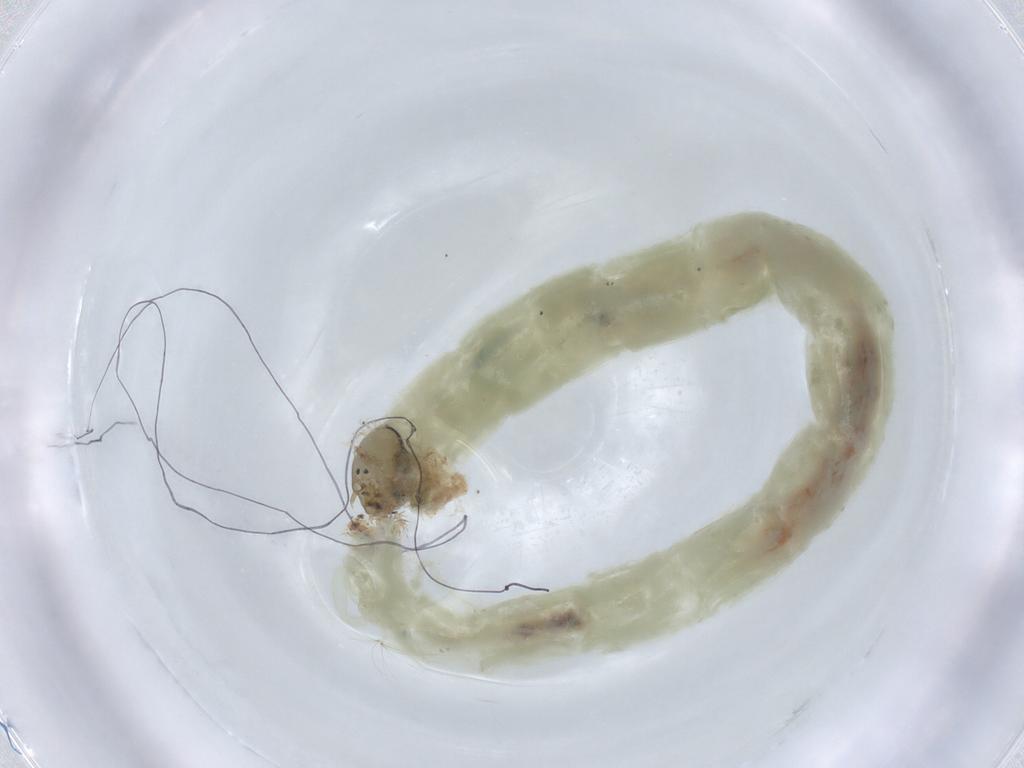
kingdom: Animalia
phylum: Arthropoda
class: Insecta
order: Diptera
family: Chironomidae
